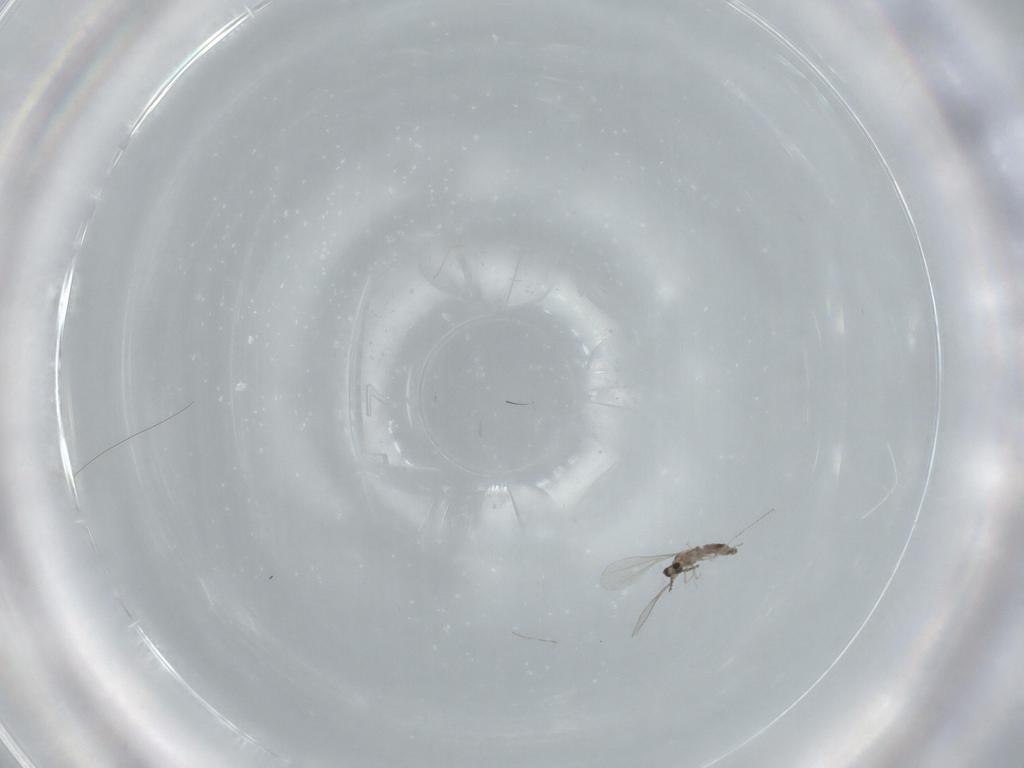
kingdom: Animalia
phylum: Arthropoda
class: Insecta
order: Diptera
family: Cecidomyiidae
